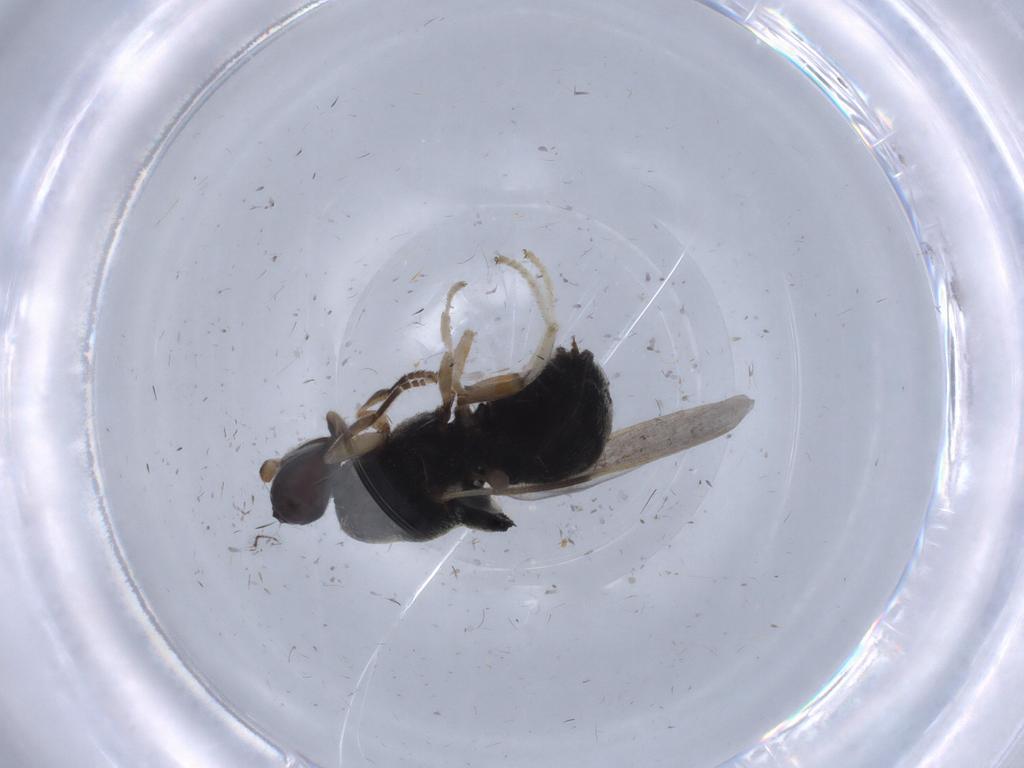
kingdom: Animalia
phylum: Arthropoda
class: Insecta
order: Diptera
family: Stratiomyidae
